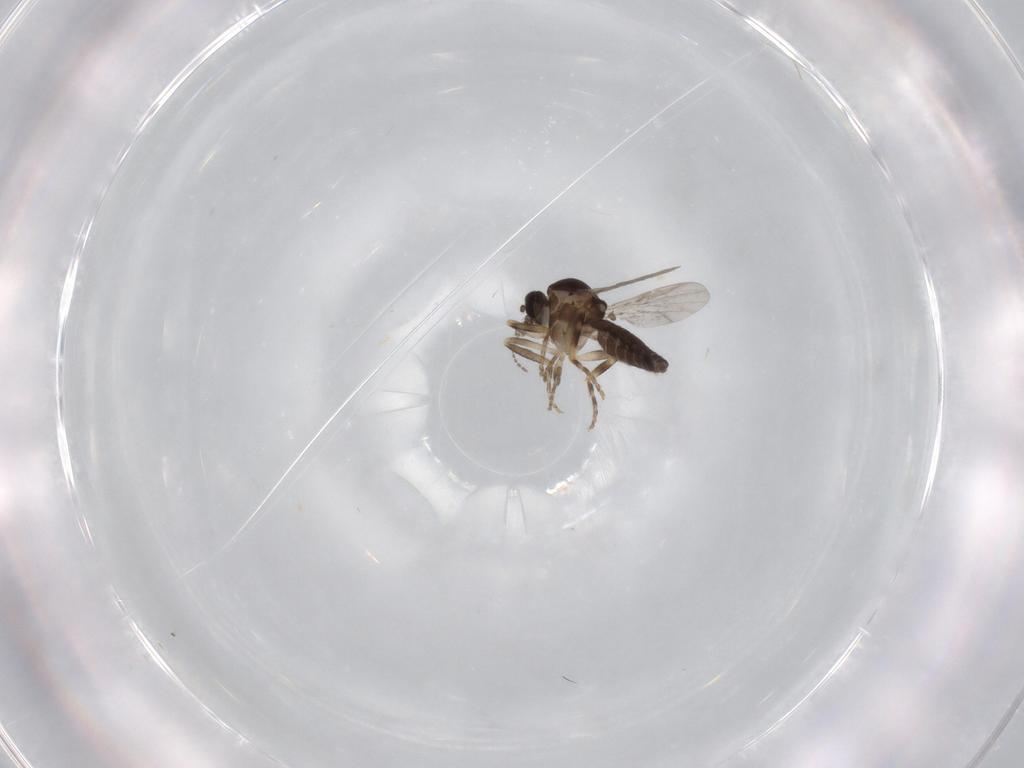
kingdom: Animalia
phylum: Arthropoda
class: Insecta
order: Diptera
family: Ceratopogonidae
